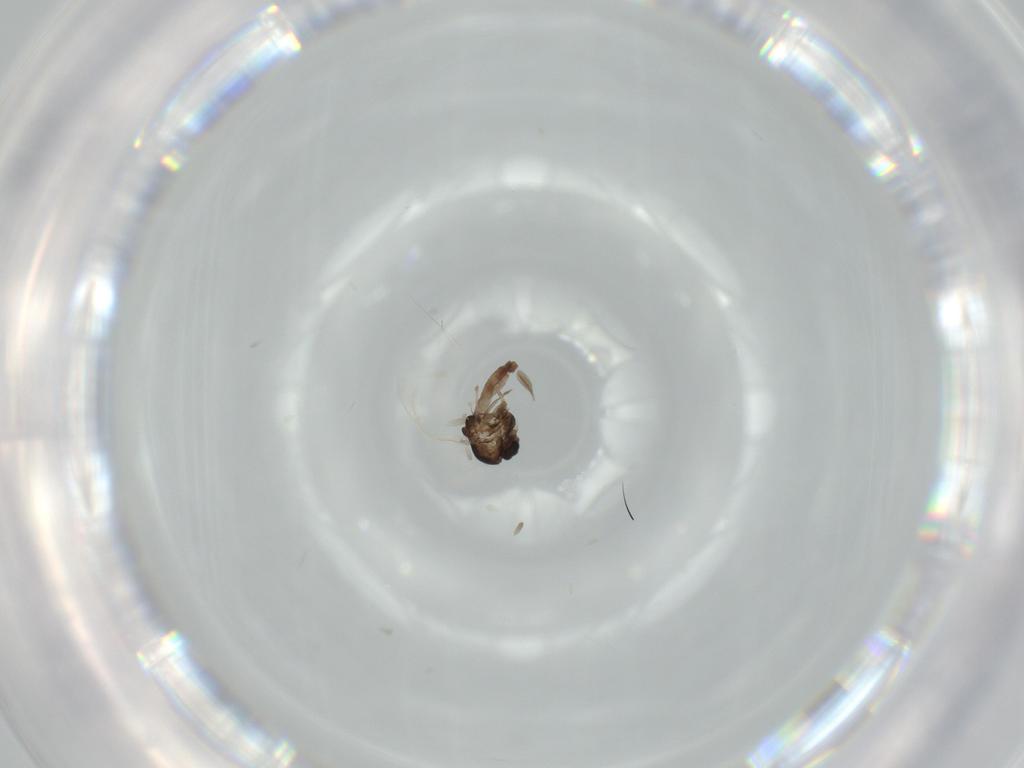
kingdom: Animalia
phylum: Arthropoda
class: Insecta
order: Diptera
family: Chironomidae
